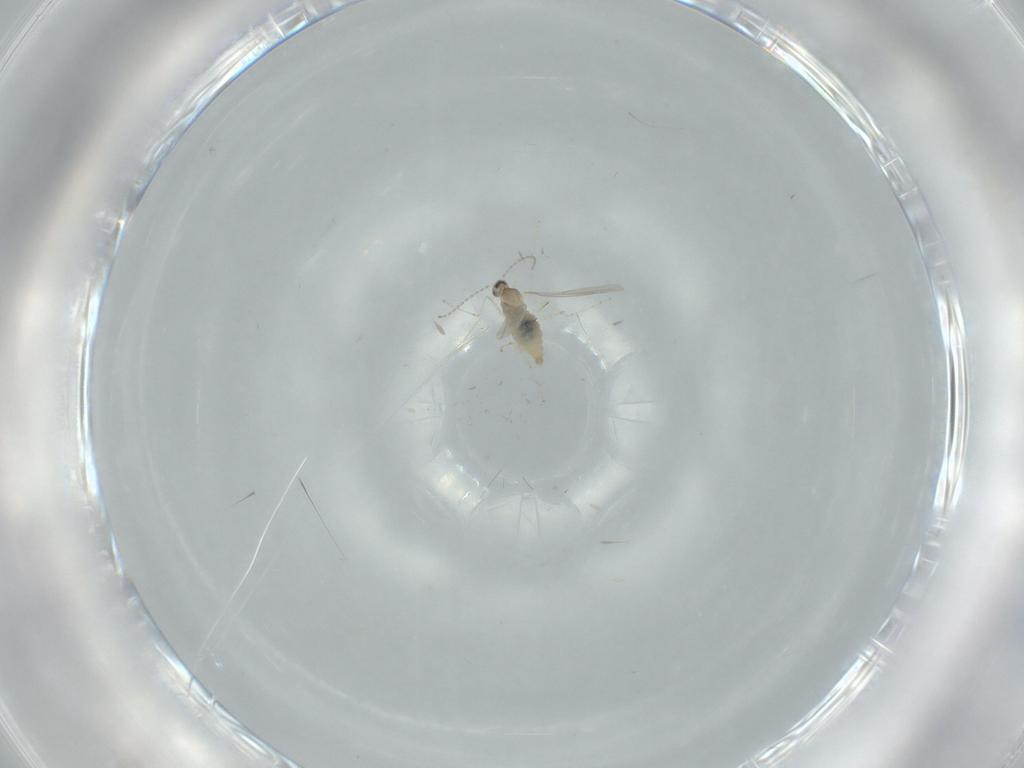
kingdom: Animalia
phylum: Arthropoda
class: Insecta
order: Diptera
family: Cecidomyiidae
